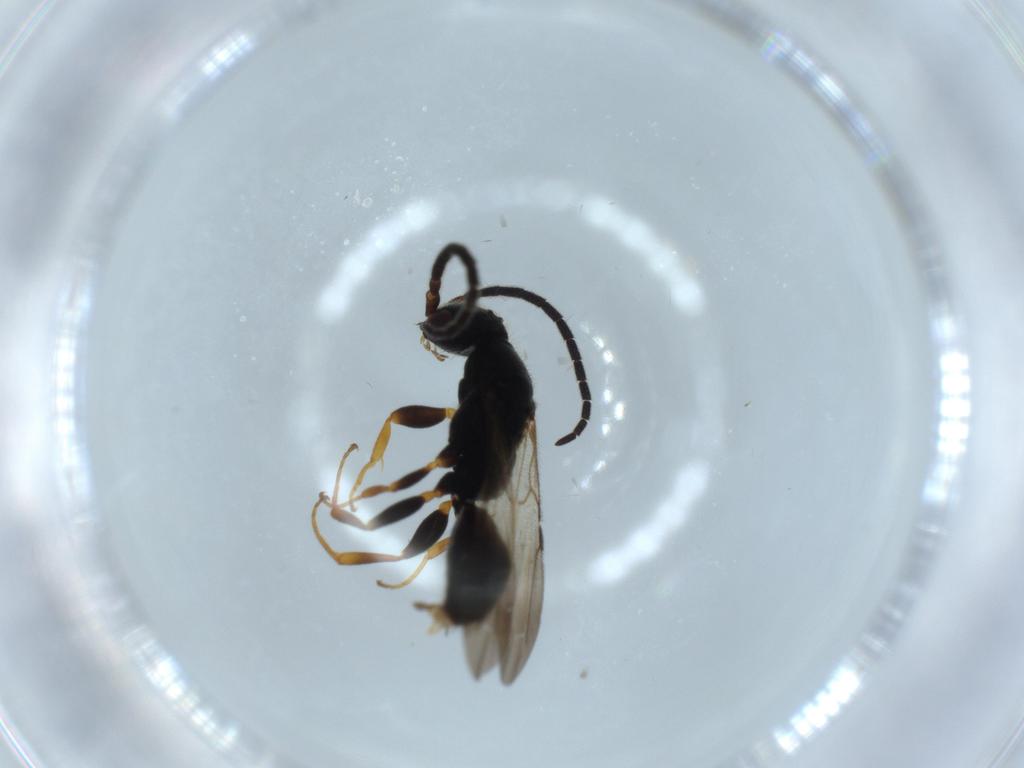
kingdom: Animalia
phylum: Arthropoda
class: Insecta
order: Hymenoptera
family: Bethylidae
